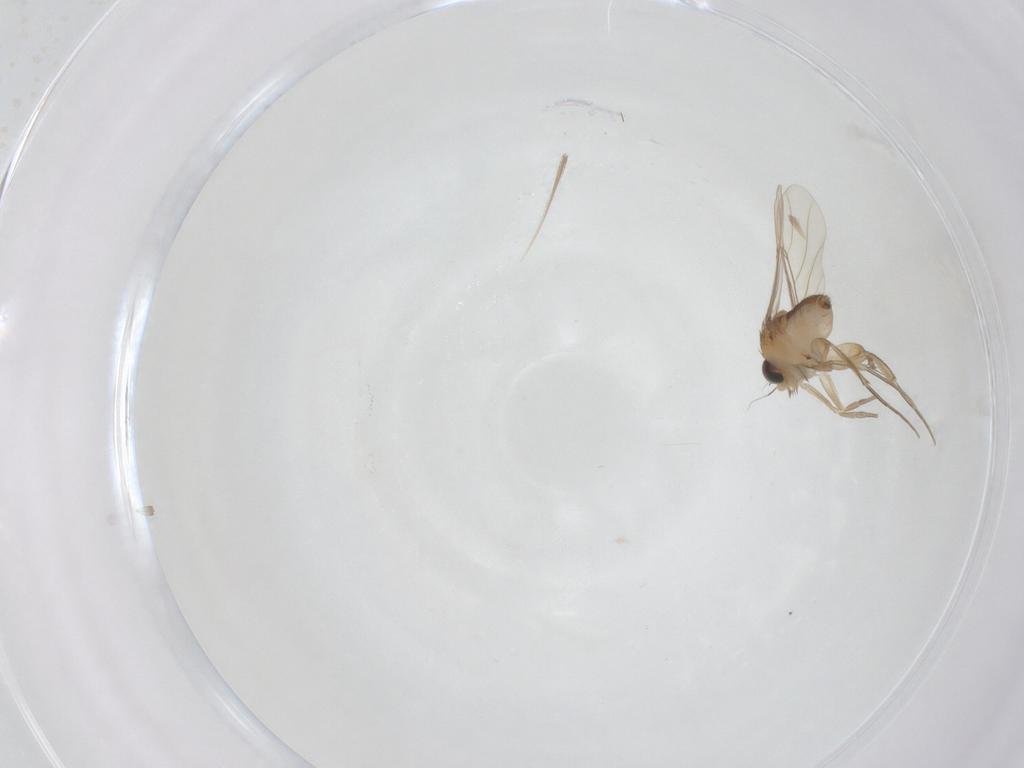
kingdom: Animalia
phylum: Arthropoda
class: Insecta
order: Diptera
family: Phoridae
